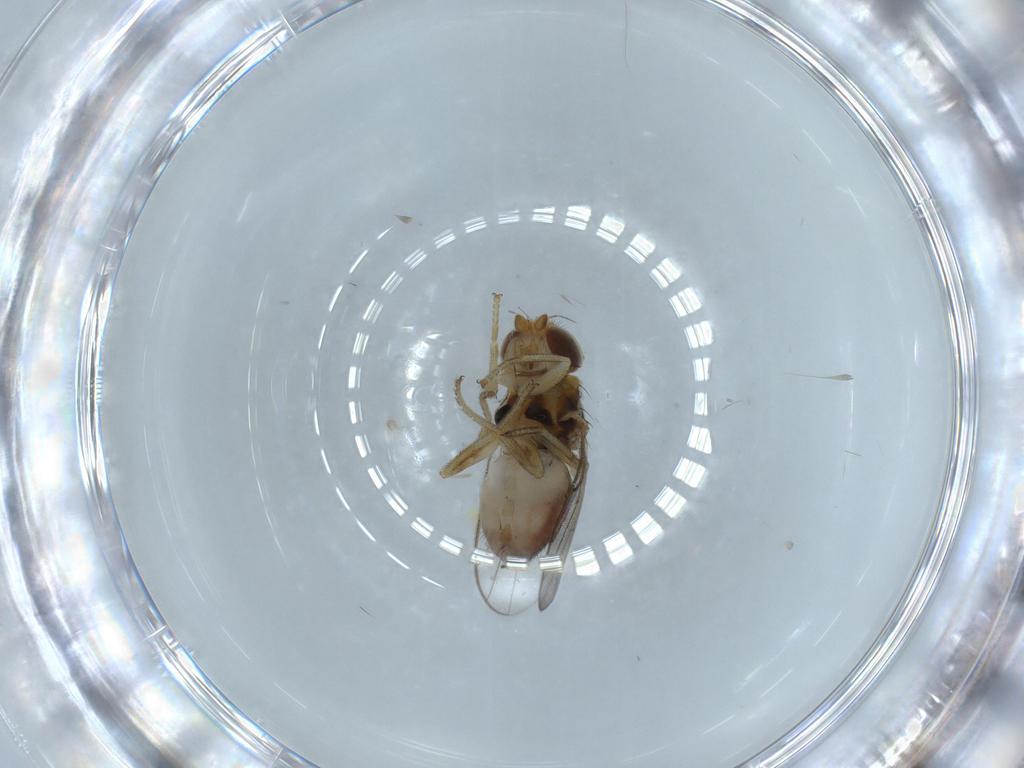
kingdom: Animalia
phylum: Arthropoda
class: Insecta
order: Diptera
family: Chloropidae
